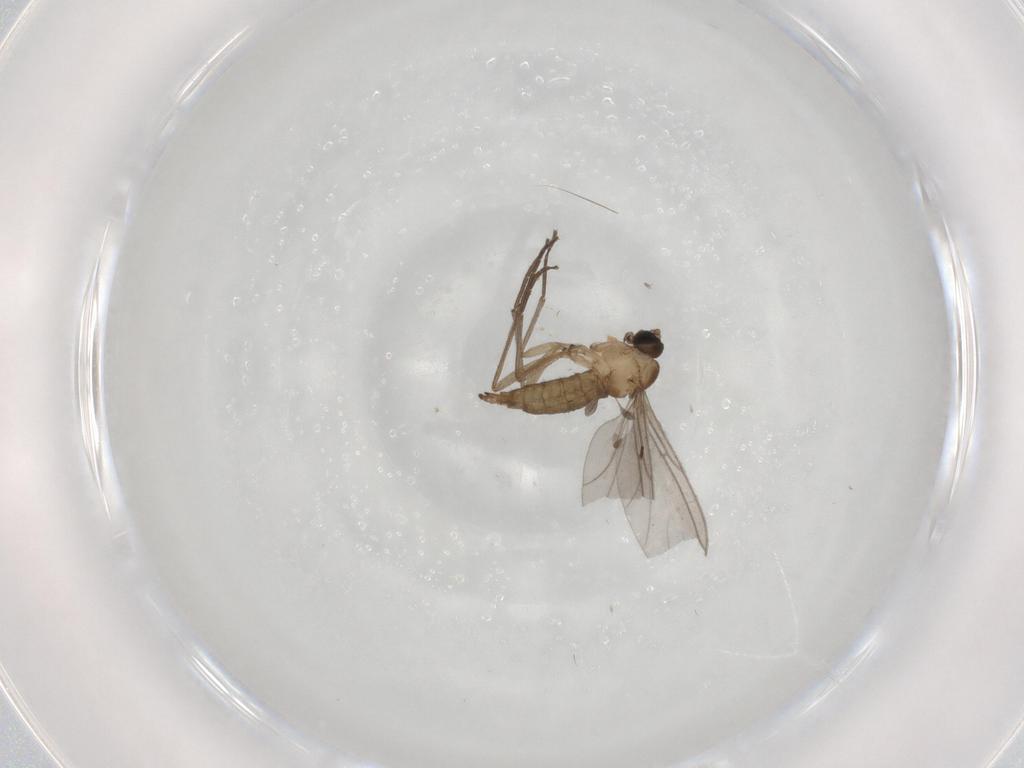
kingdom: Animalia
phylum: Arthropoda
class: Insecta
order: Diptera
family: Sciaridae
